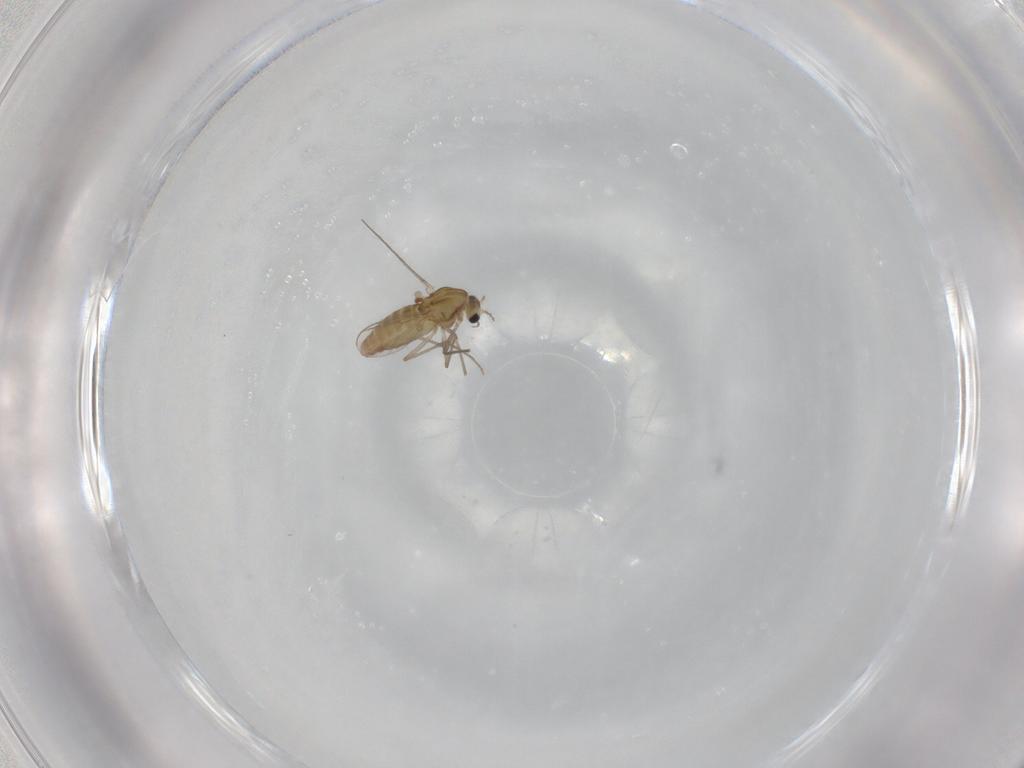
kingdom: Animalia
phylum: Arthropoda
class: Insecta
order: Diptera
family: Chironomidae
